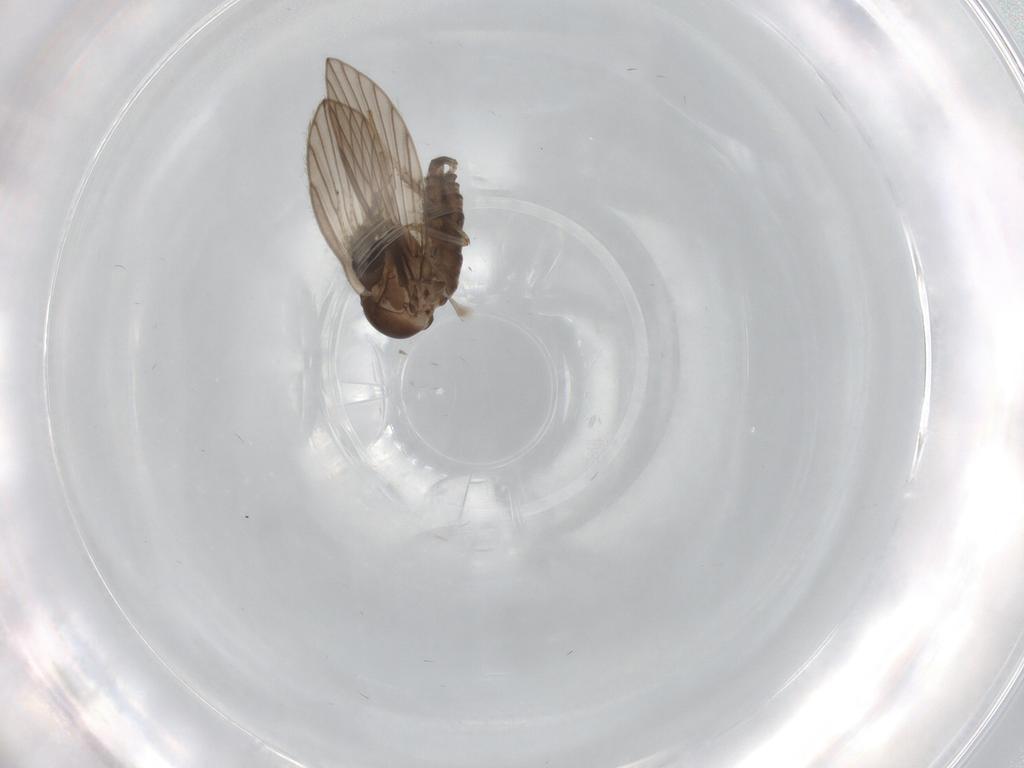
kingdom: Animalia
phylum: Arthropoda
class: Insecta
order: Diptera
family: Psychodidae
